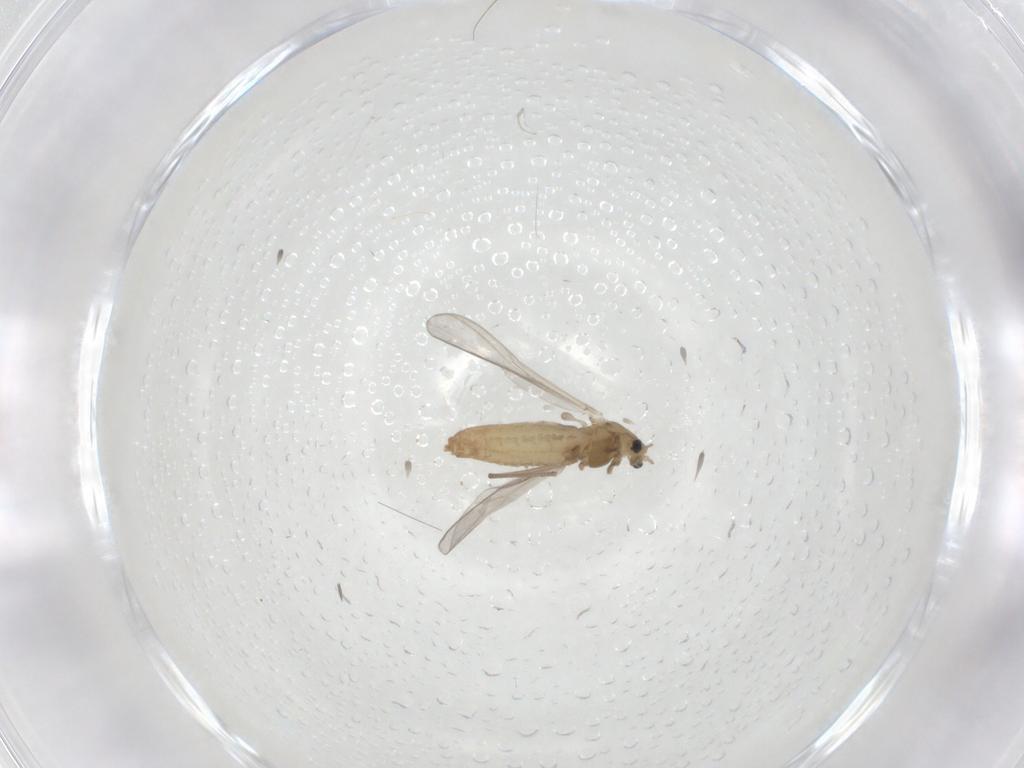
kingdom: Animalia
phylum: Arthropoda
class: Insecta
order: Diptera
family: Chironomidae
